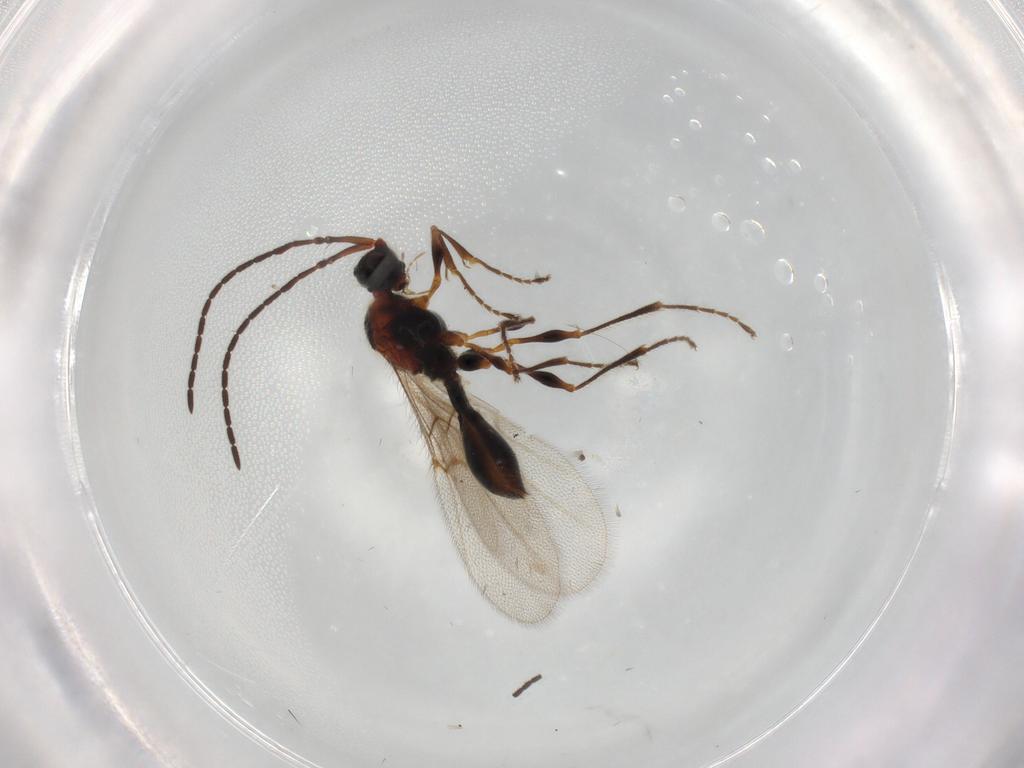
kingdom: Animalia
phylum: Arthropoda
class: Insecta
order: Hymenoptera
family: Diapriidae
